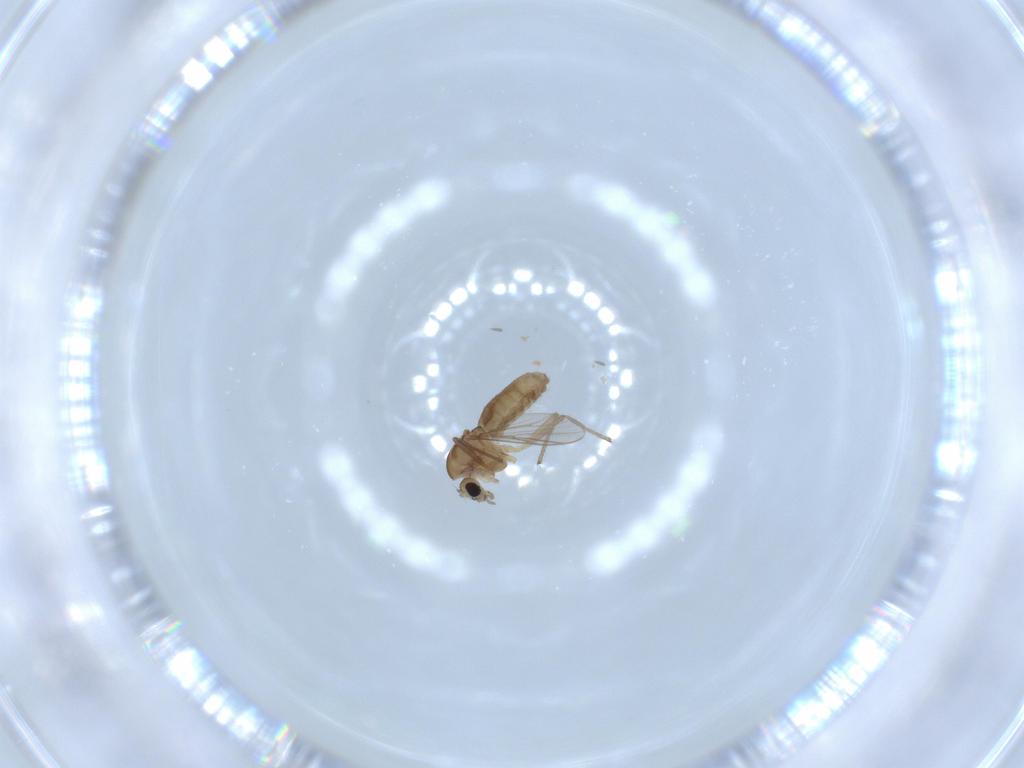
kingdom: Animalia
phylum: Arthropoda
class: Insecta
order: Diptera
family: Chironomidae
